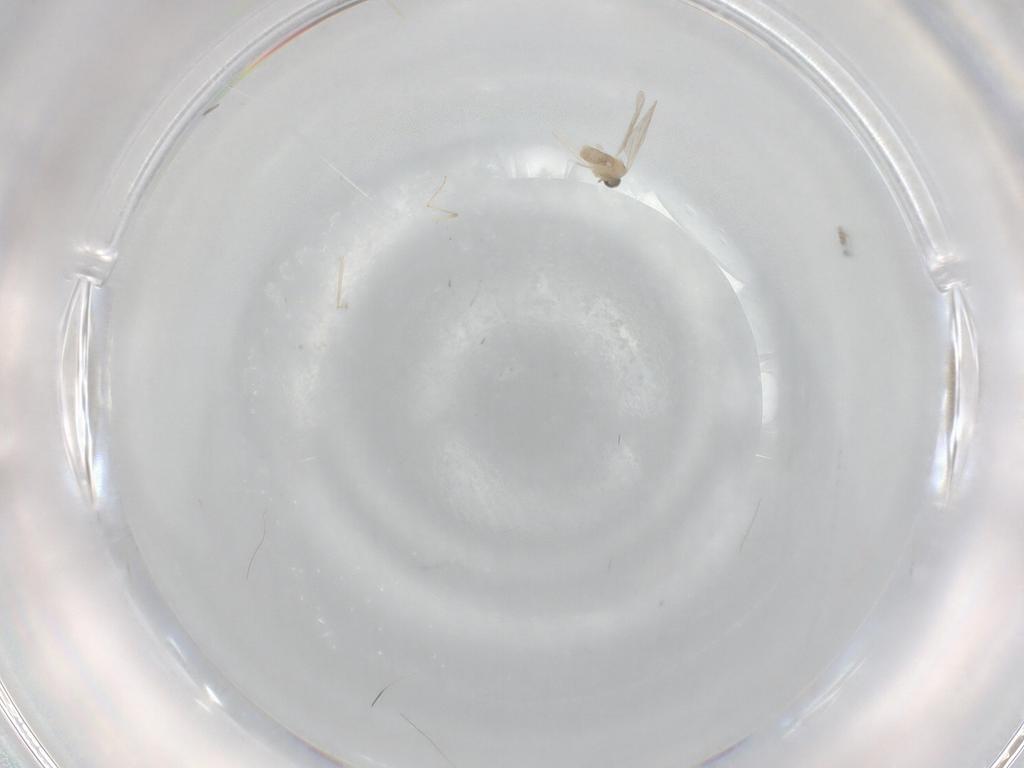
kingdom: Animalia
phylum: Arthropoda
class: Insecta
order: Diptera
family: Cecidomyiidae
